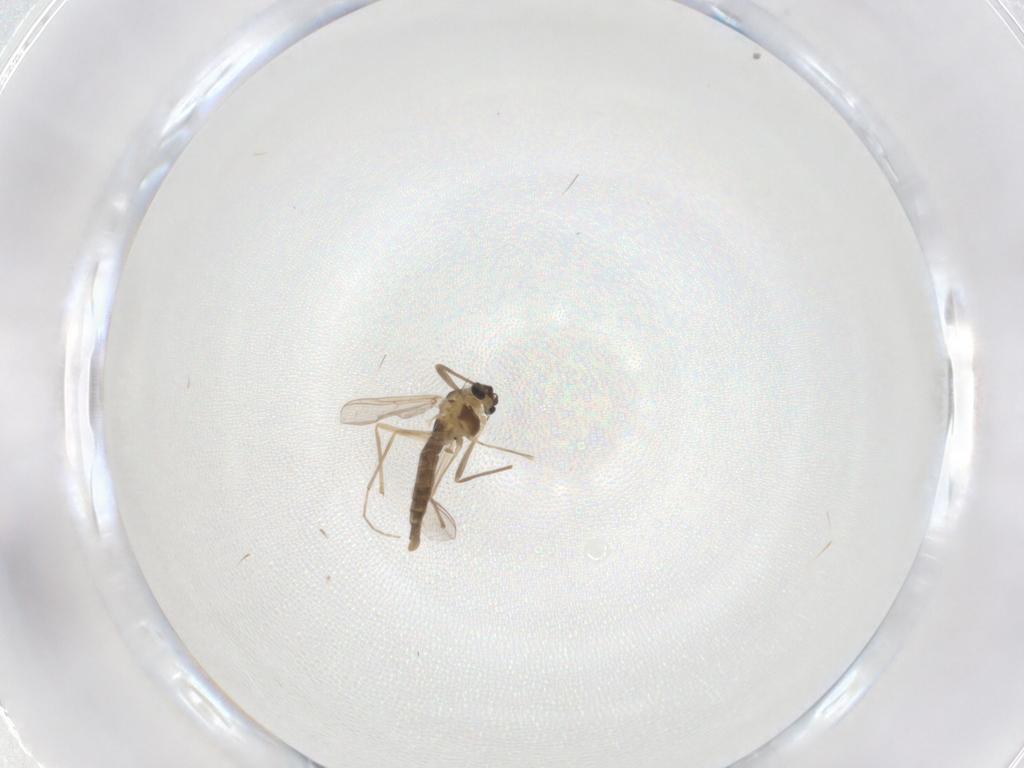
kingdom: Animalia
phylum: Arthropoda
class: Insecta
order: Diptera
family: Chironomidae
